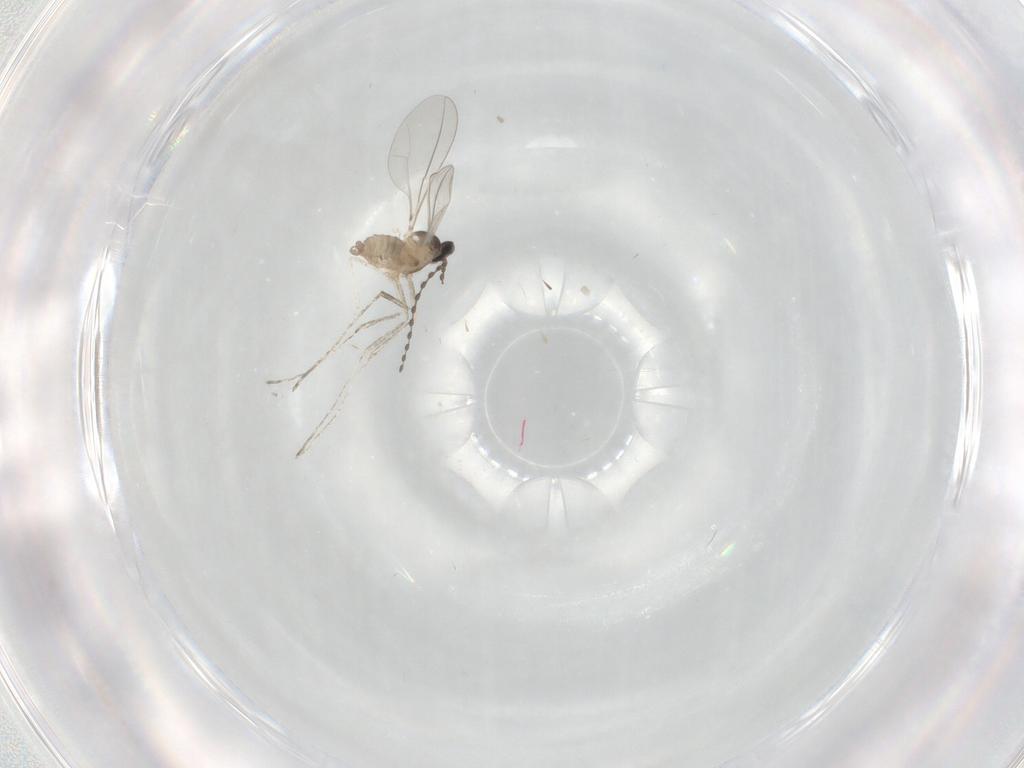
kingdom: Animalia
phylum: Arthropoda
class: Insecta
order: Diptera
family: Cecidomyiidae
